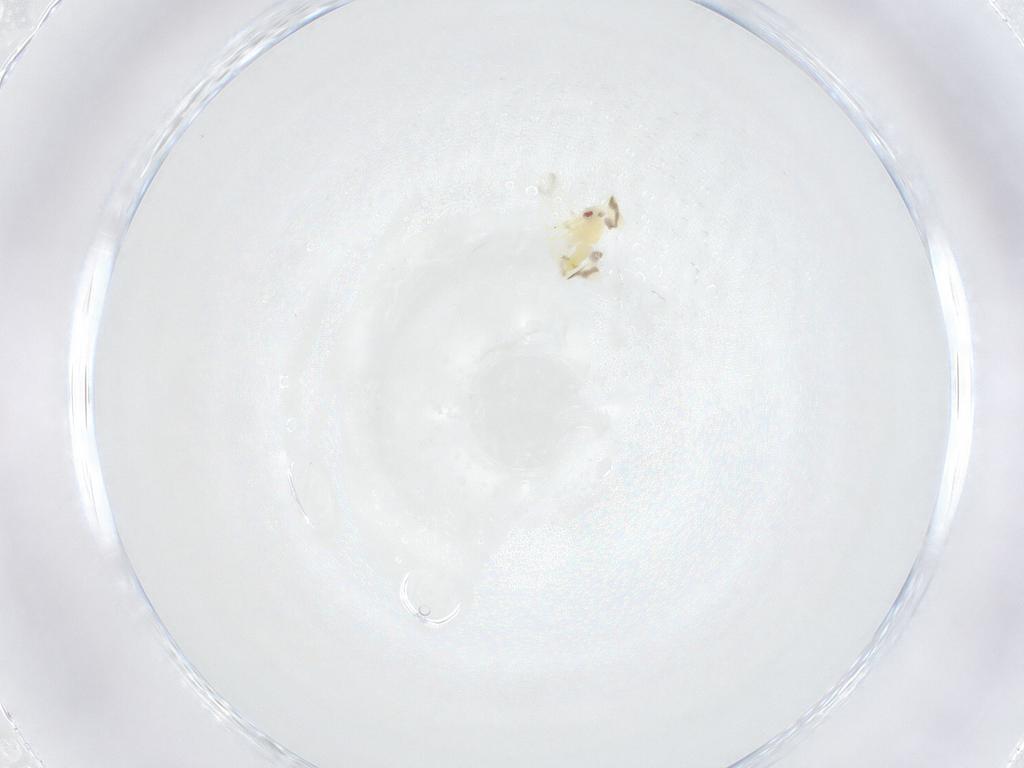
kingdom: Animalia
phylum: Arthropoda
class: Insecta
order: Hemiptera
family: Aleyrodidae
